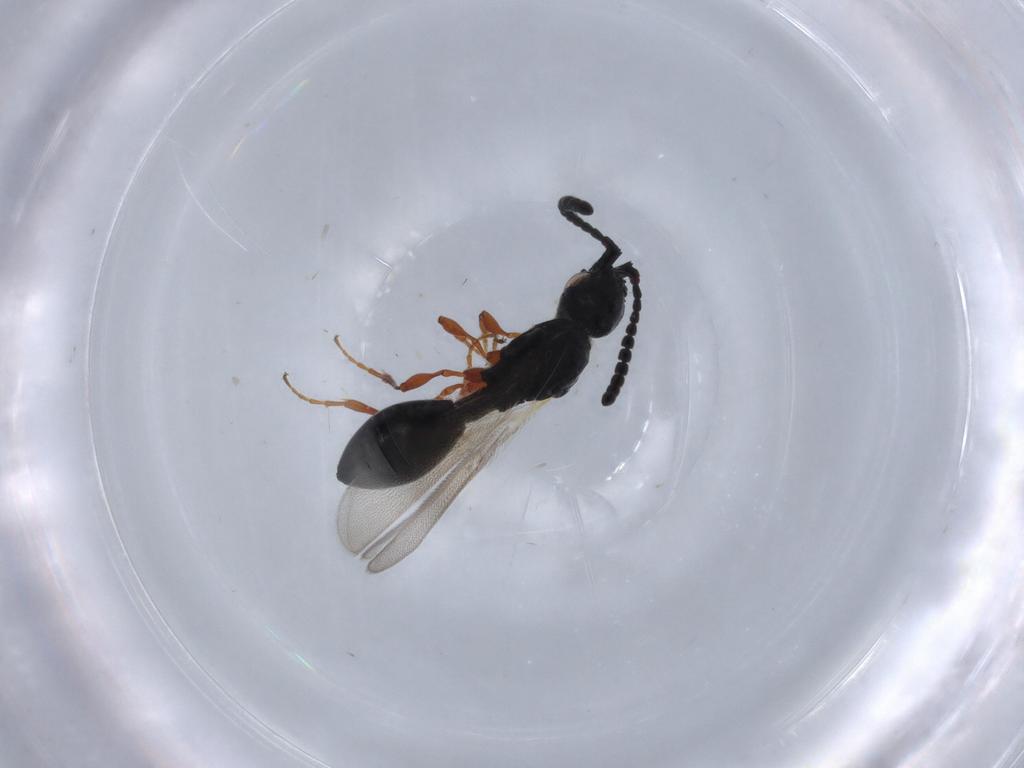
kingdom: Animalia
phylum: Arthropoda
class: Insecta
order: Hymenoptera
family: Diapriidae
